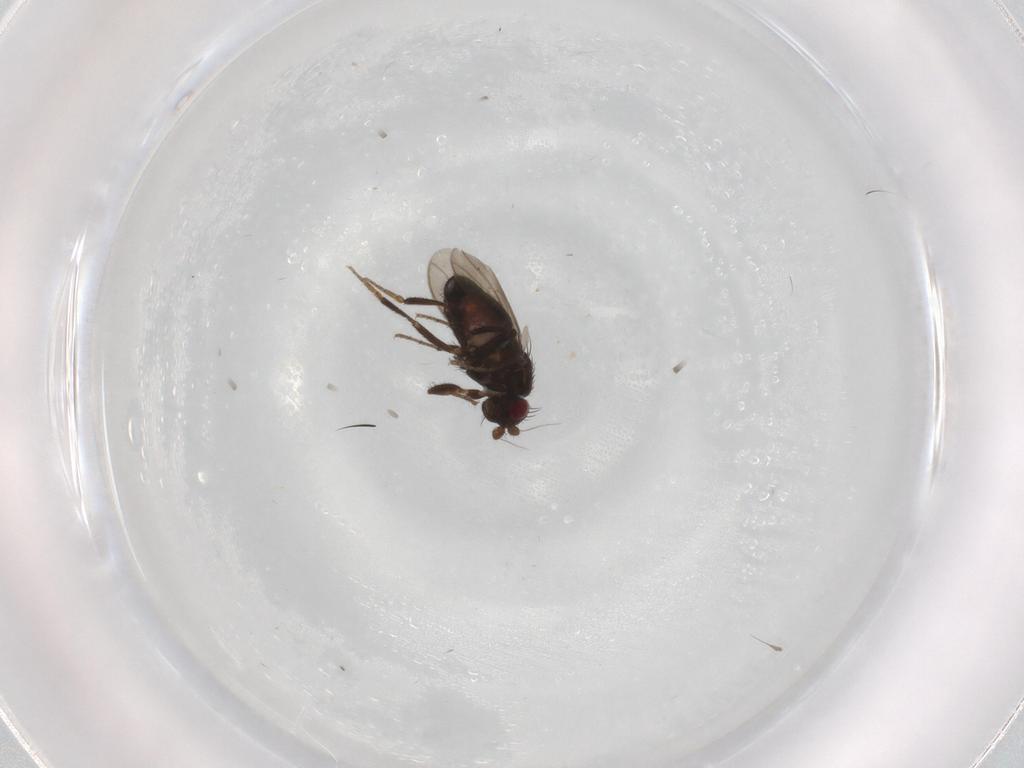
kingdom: Animalia
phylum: Arthropoda
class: Insecta
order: Diptera
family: Sphaeroceridae
